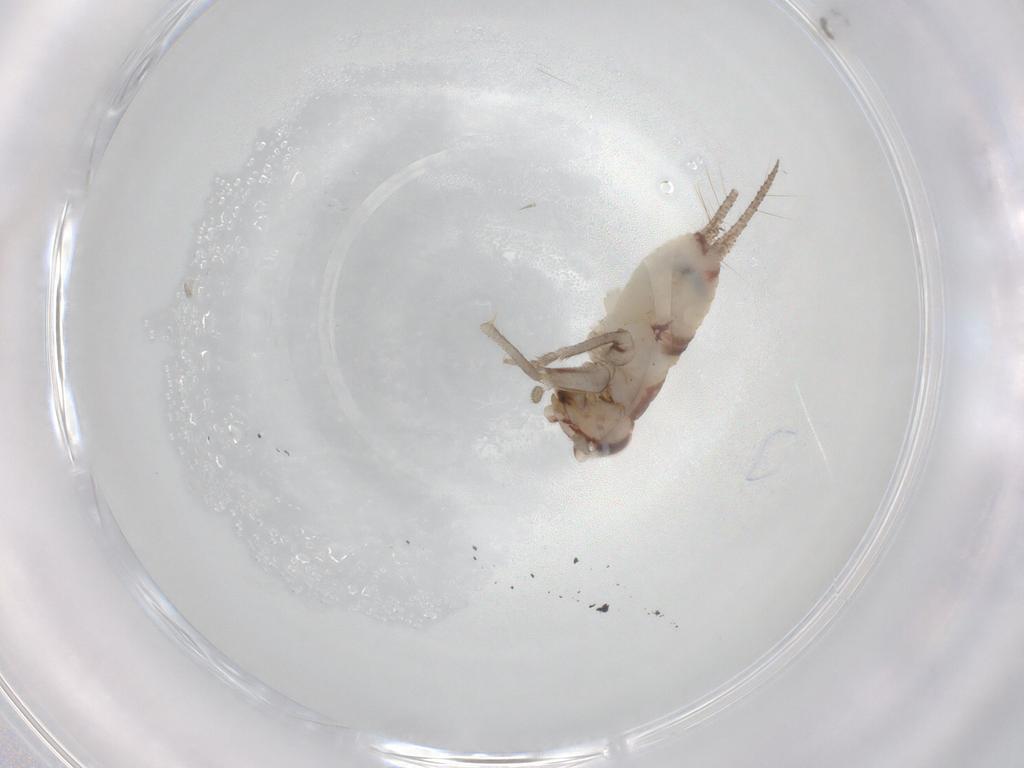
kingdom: Animalia
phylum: Arthropoda
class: Insecta
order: Orthoptera
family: Trigonidiidae
